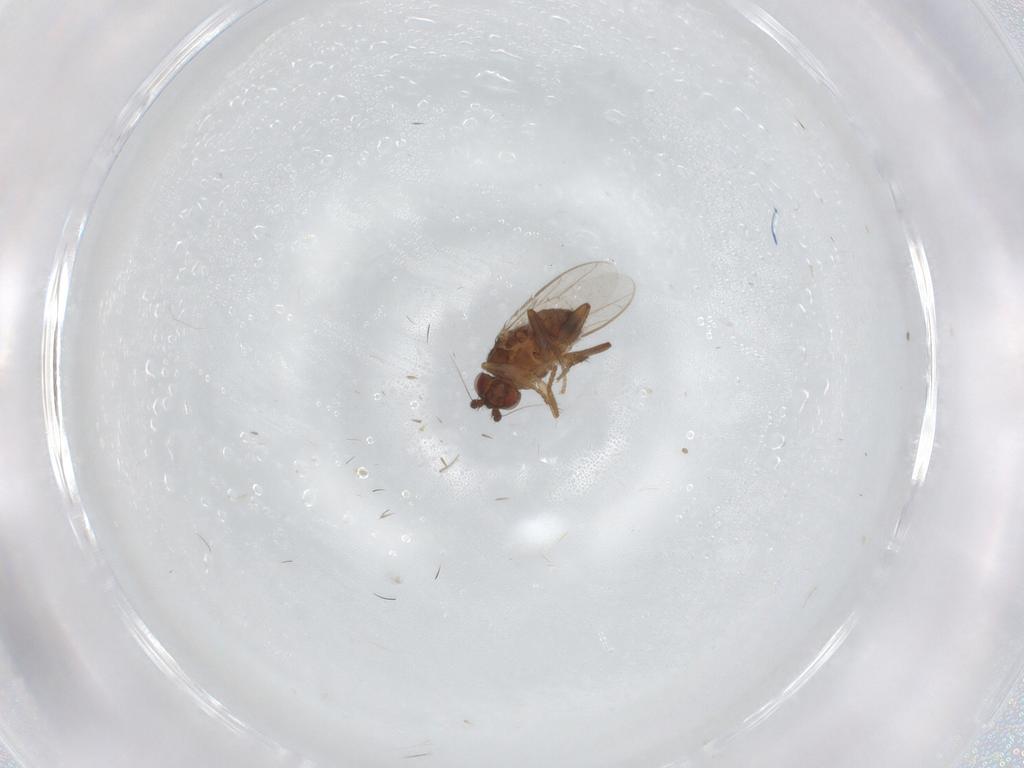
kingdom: Animalia
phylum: Arthropoda
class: Insecta
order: Diptera
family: Sphaeroceridae
